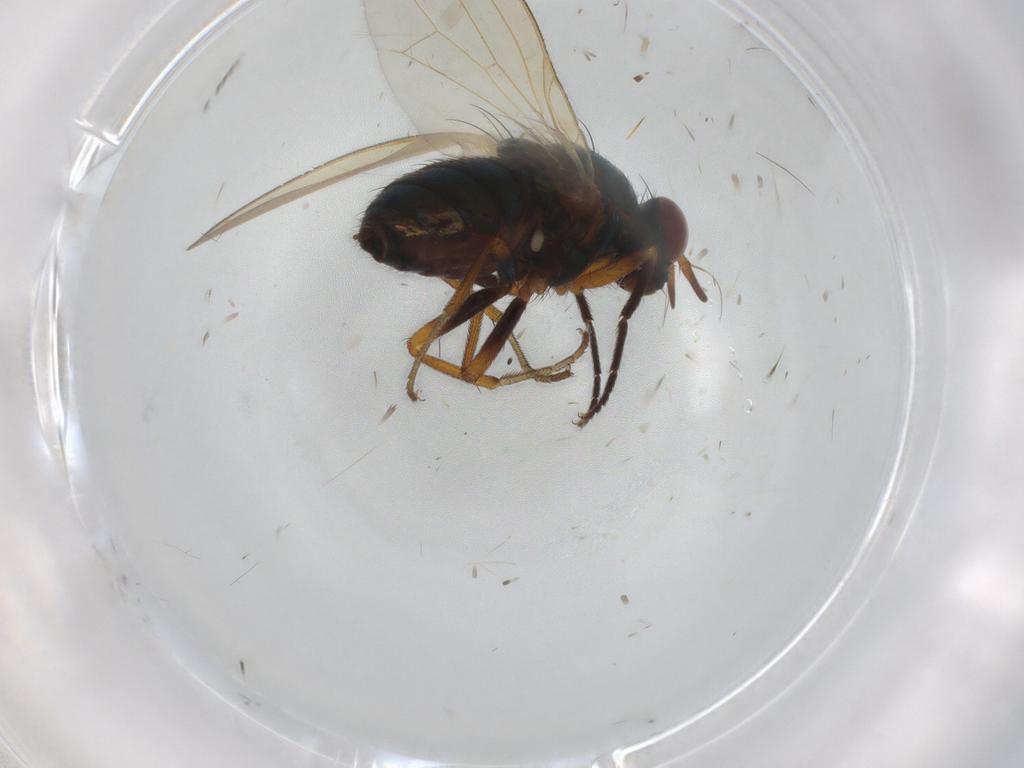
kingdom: Animalia
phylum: Arthropoda
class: Insecta
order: Diptera
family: Lauxaniidae
